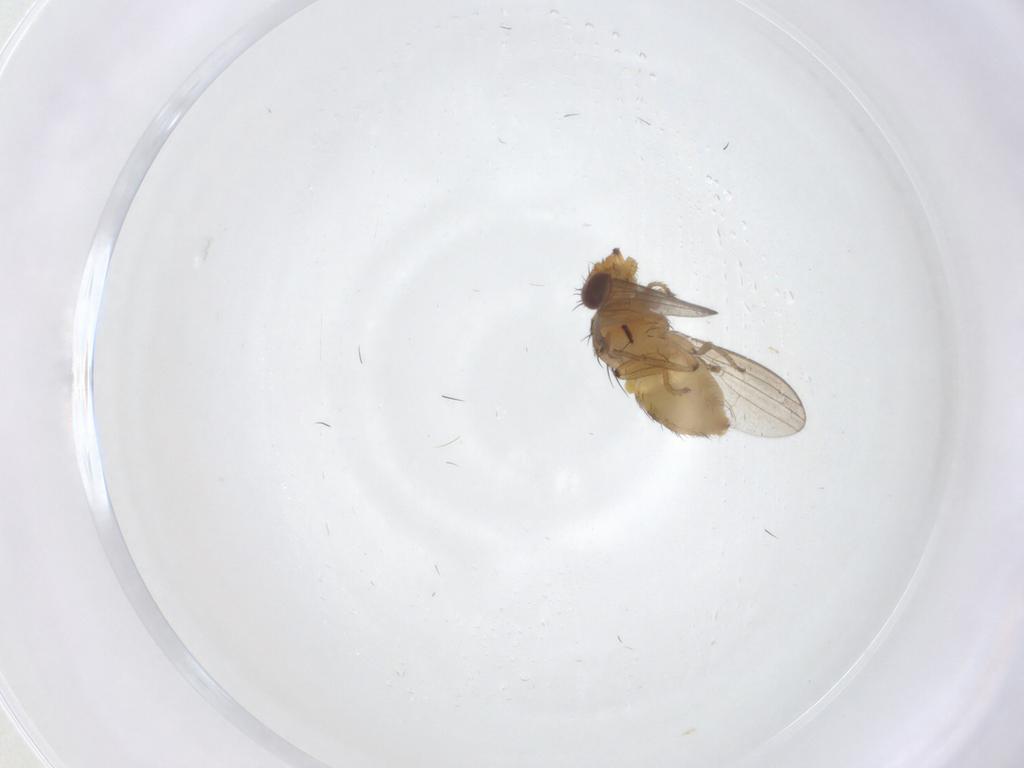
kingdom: Animalia
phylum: Arthropoda
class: Insecta
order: Diptera
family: Milichiidae
